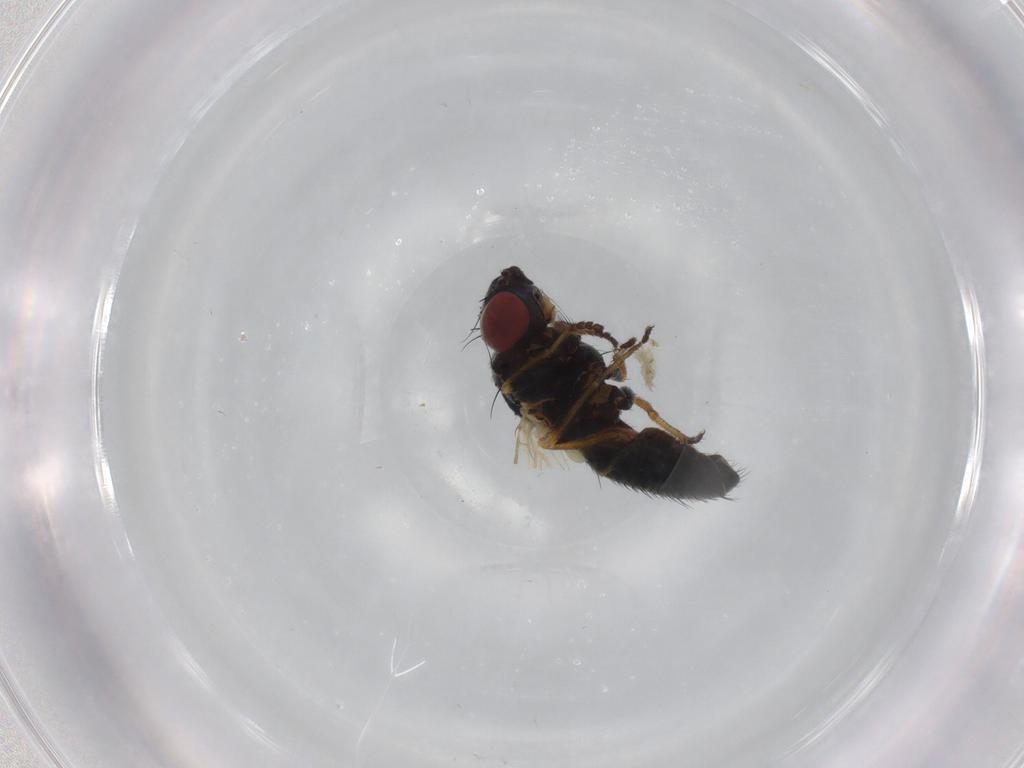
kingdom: Animalia
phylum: Arthropoda
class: Insecta
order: Diptera
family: Chamaemyiidae
